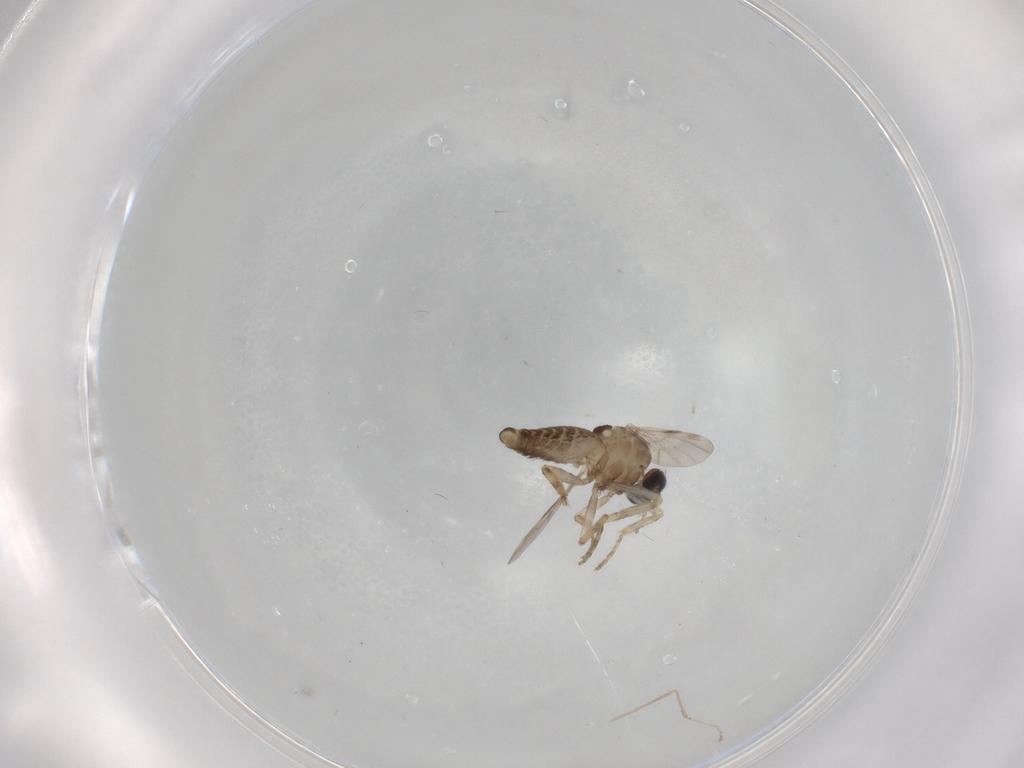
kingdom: Animalia
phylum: Arthropoda
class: Insecta
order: Diptera
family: Ceratopogonidae
